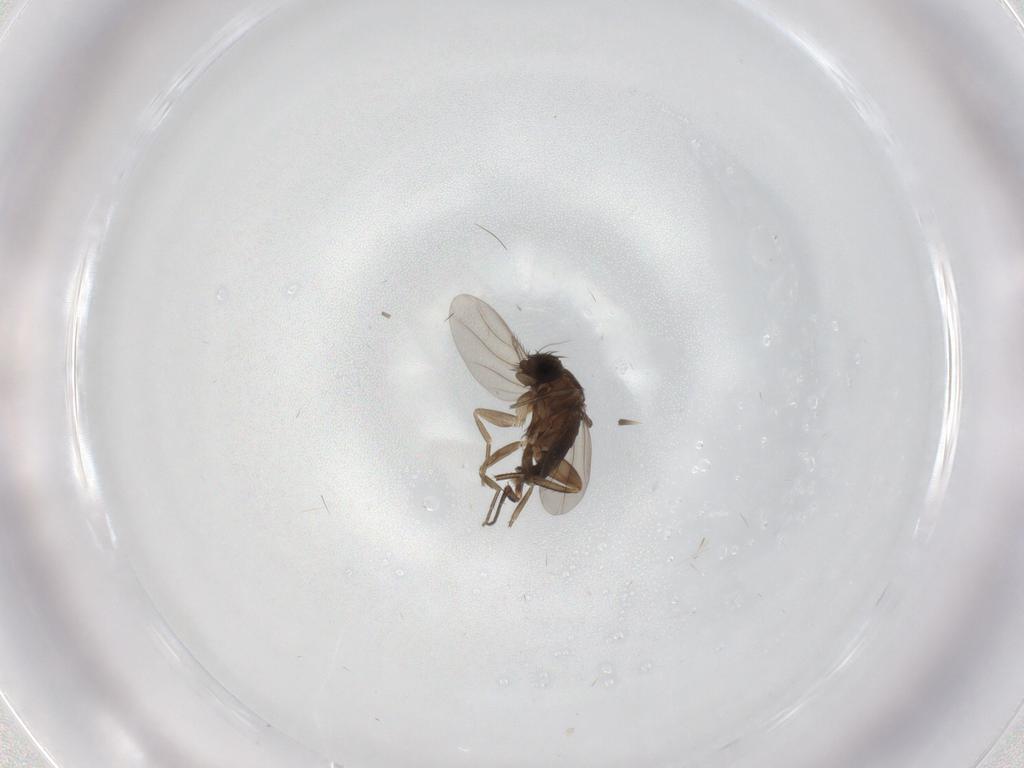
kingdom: Animalia
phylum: Arthropoda
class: Insecta
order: Diptera
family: Phoridae
